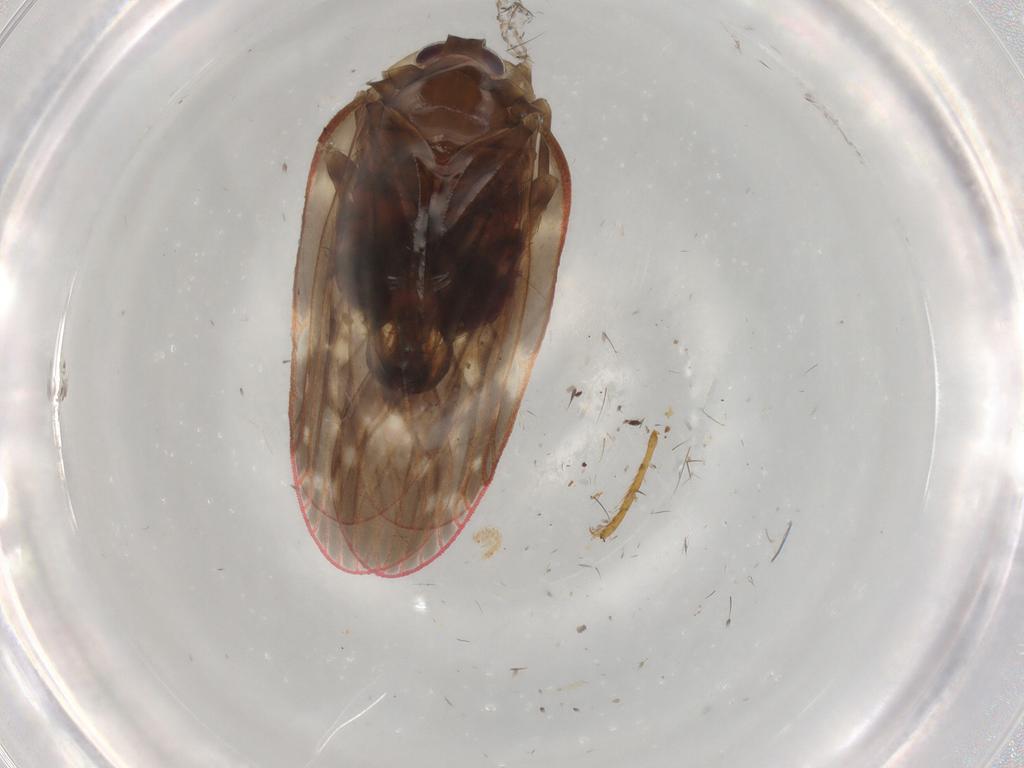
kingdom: Animalia
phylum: Arthropoda
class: Insecta
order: Hemiptera
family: Achilidae
